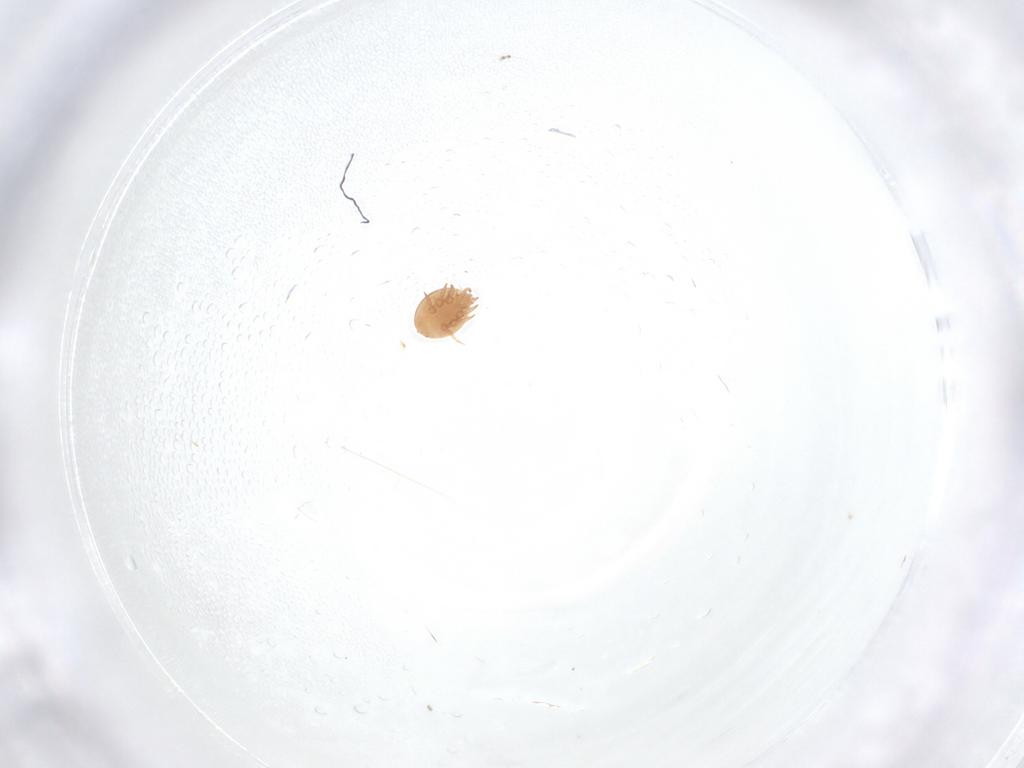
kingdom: Animalia
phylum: Arthropoda
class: Arachnida
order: Mesostigmata
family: Trematuridae
